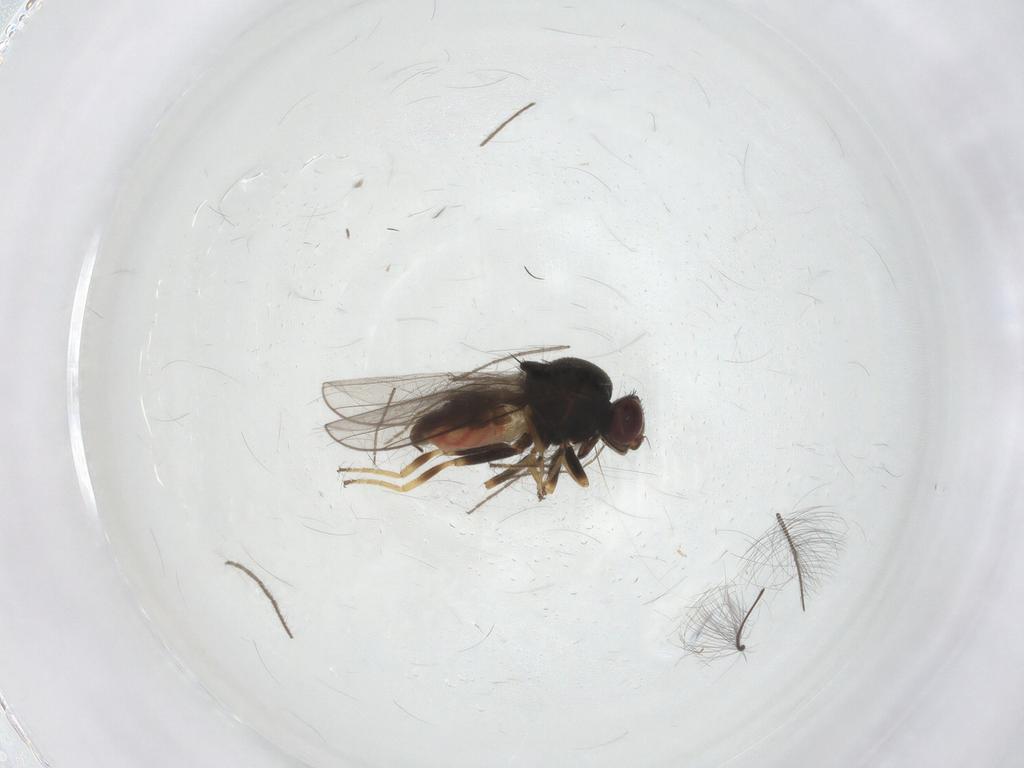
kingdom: Animalia
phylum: Arthropoda
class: Insecta
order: Diptera
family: Chloropidae
